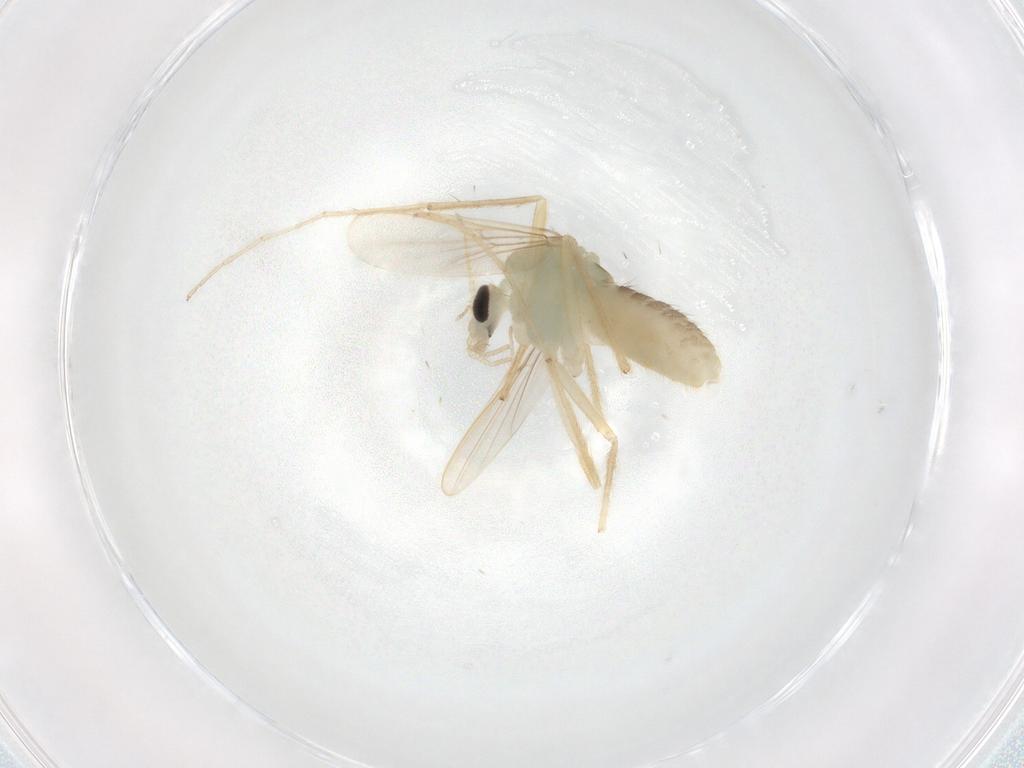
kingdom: Animalia
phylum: Arthropoda
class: Insecta
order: Diptera
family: Chironomidae
